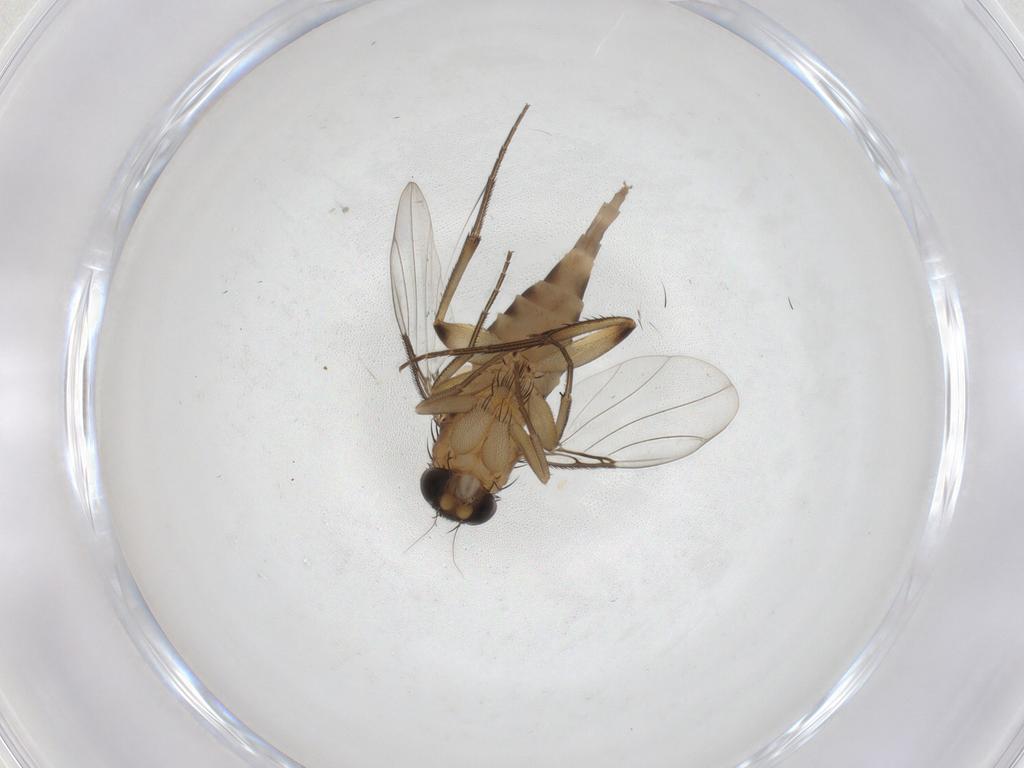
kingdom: Animalia
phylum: Arthropoda
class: Insecta
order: Diptera
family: Phoridae
